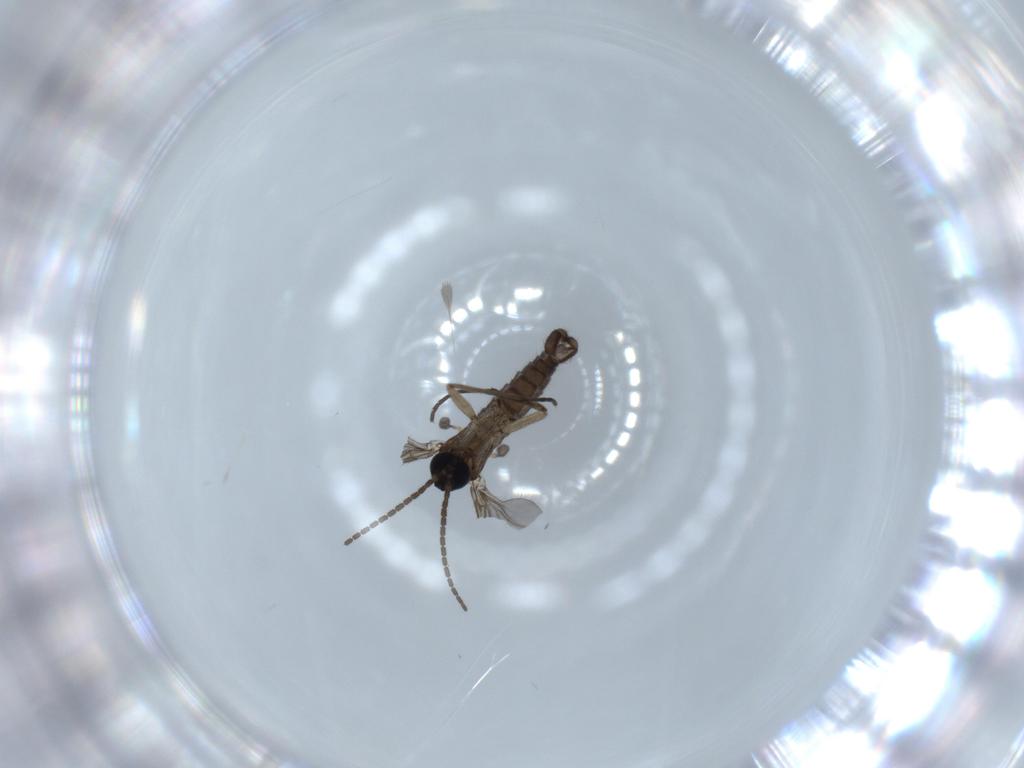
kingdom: Animalia
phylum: Arthropoda
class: Insecta
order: Diptera
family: Sciaridae
